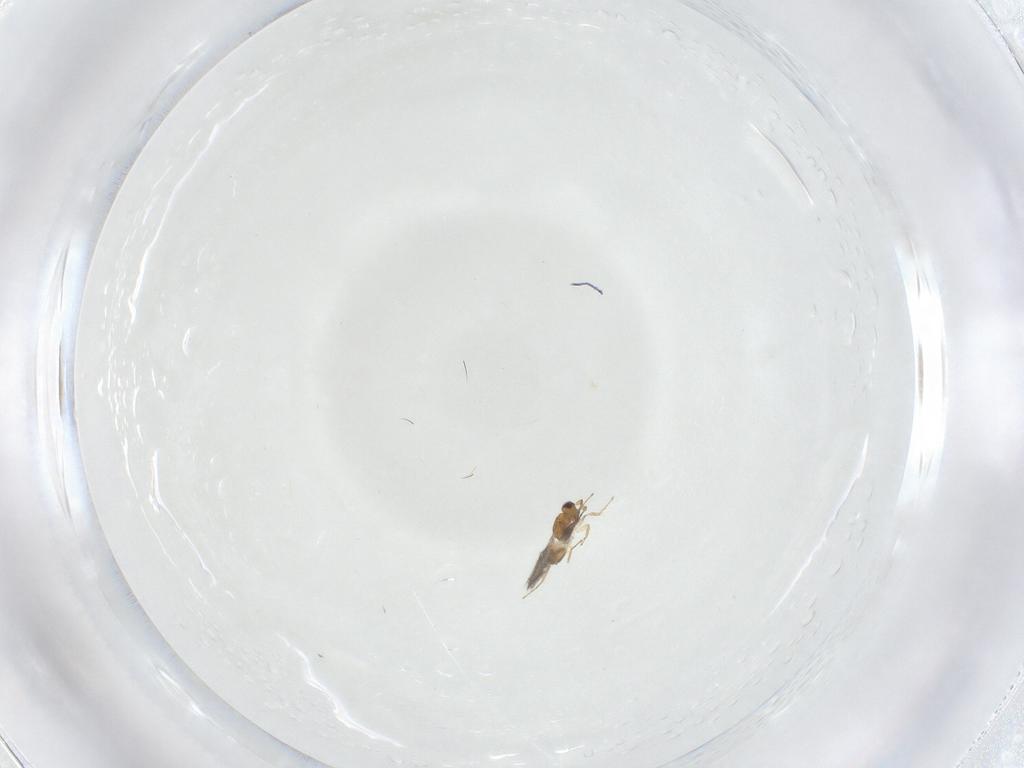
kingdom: Animalia
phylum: Arthropoda
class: Insecta
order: Hymenoptera
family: Mymaridae
